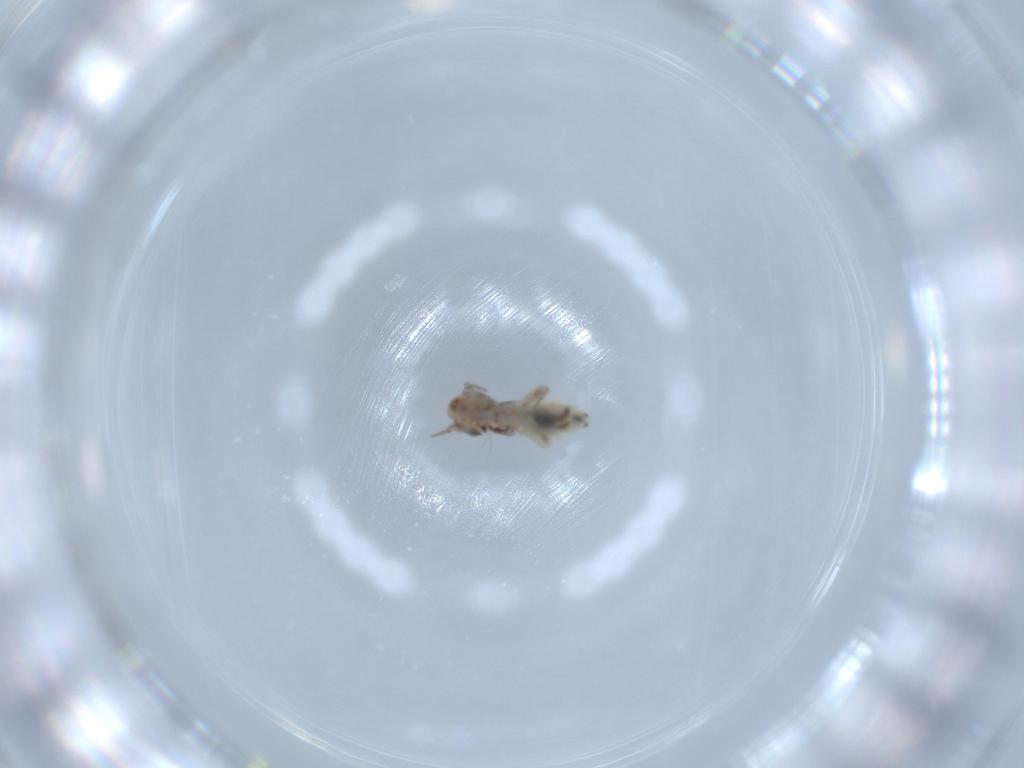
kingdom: Animalia
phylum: Arthropoda
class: Insecta
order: Psocodea
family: Lepidopsocidae
